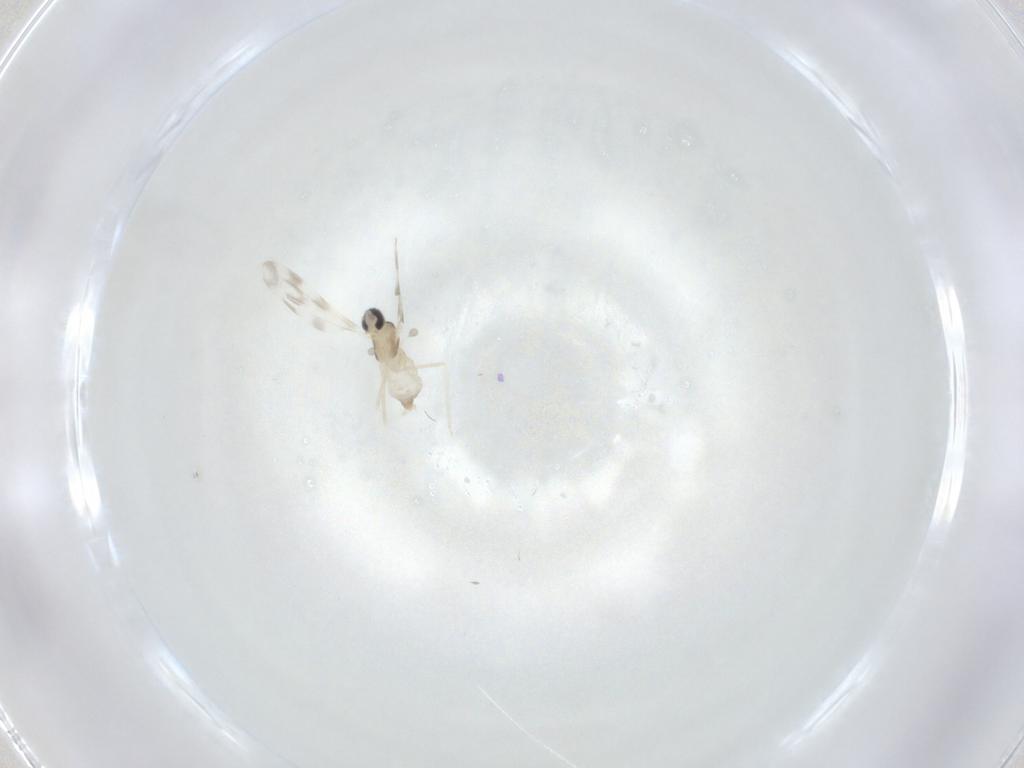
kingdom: Animalia
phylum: Arthropoda
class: Insecta
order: Diptera
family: Cecidomyiidae
